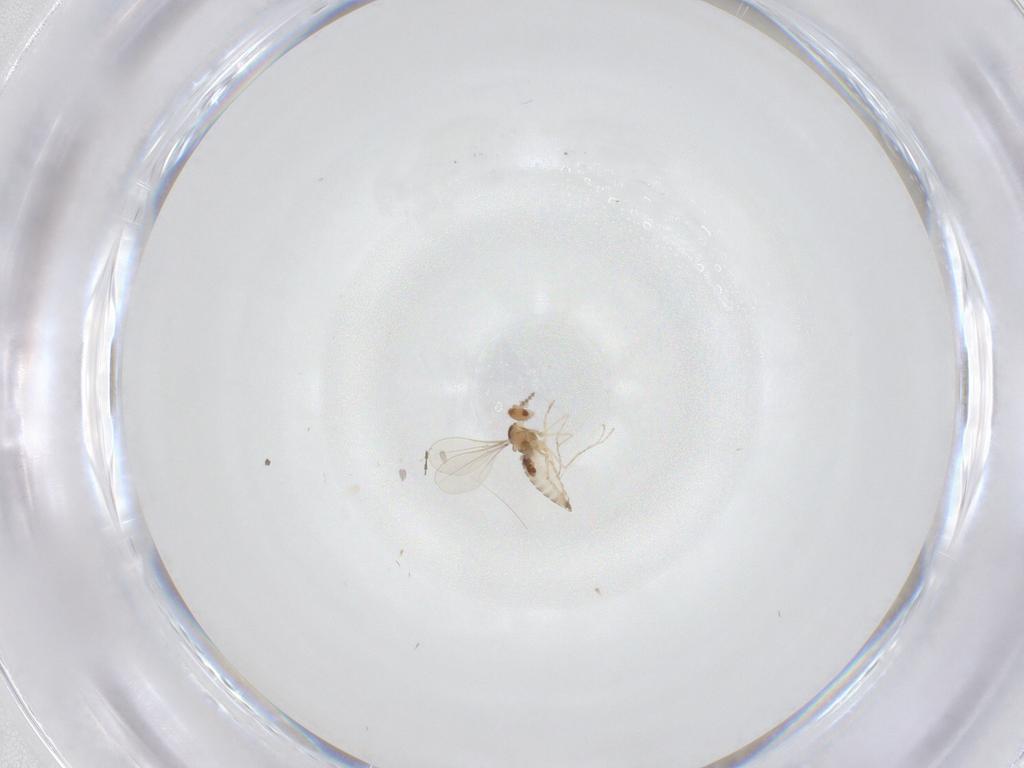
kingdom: Animalia
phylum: Arthropoda
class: Insecta
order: Diptera
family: Cecidomyiidae
